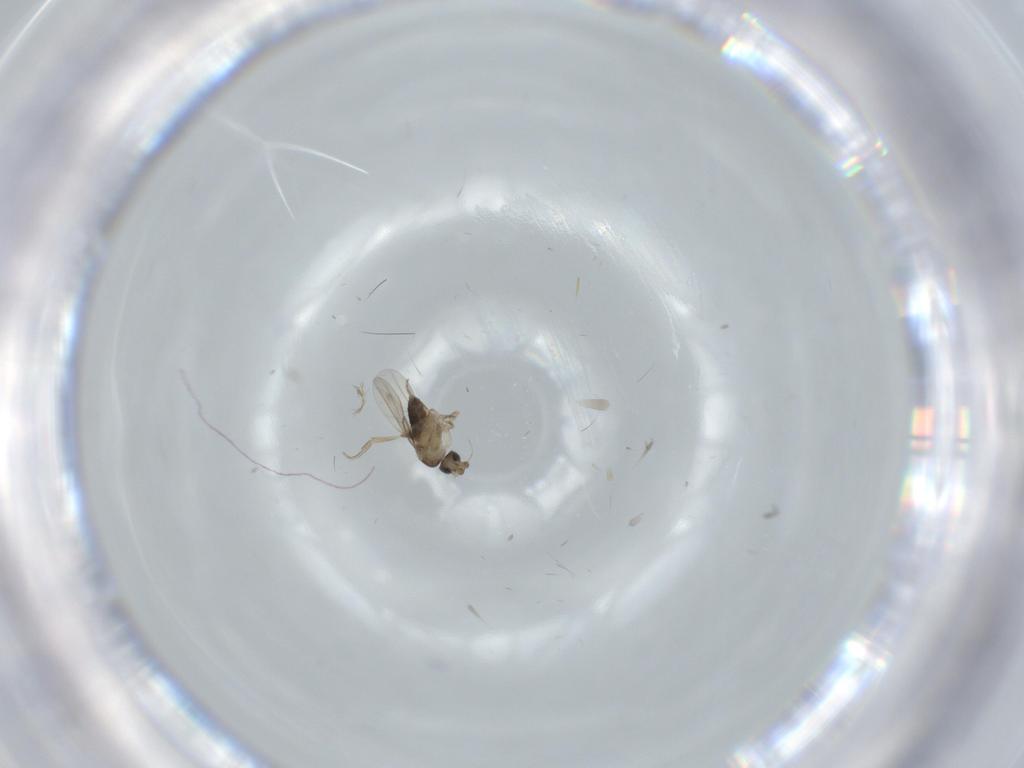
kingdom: Animalia
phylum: Arthropoda
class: Insecta
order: Diptera
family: Phoridae
